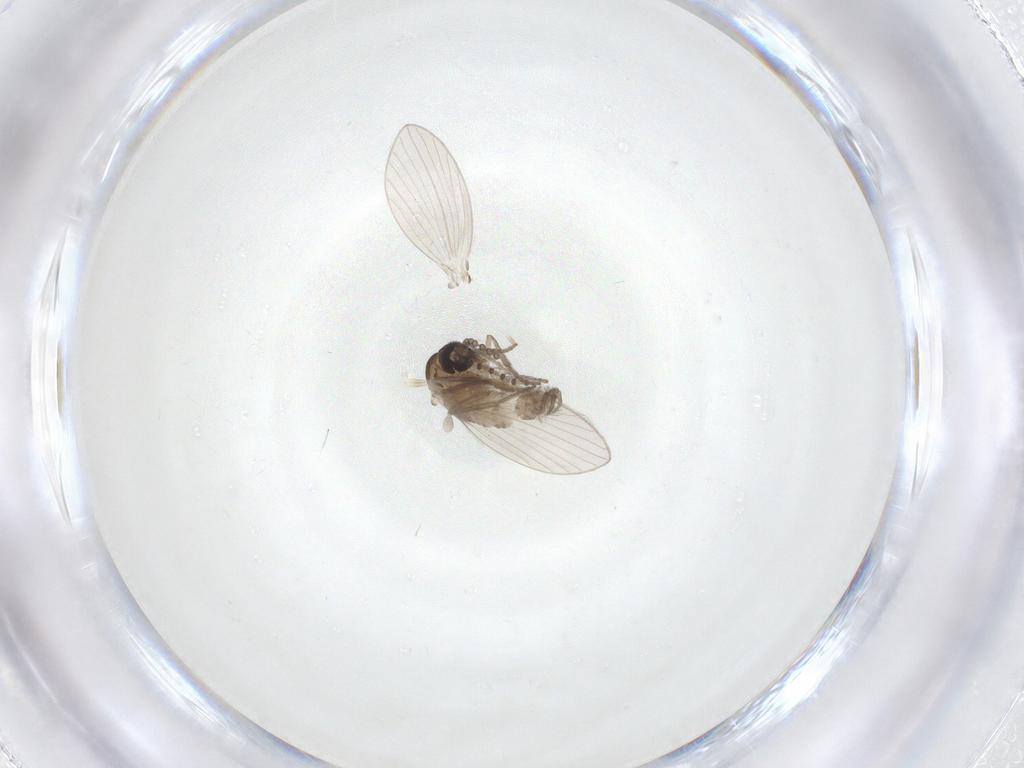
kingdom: Animalia
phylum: Arthropoda
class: Insecta
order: Diptera
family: Psychodidae
